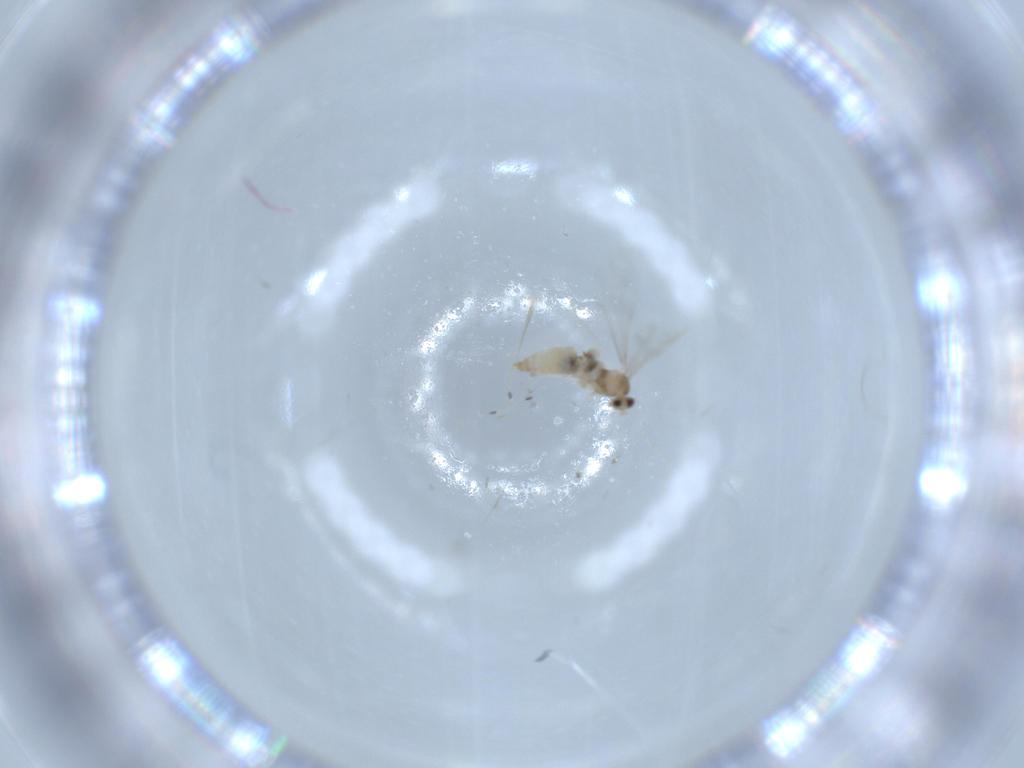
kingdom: Animalia
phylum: Arthropoda
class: Insecta
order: Diptera
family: Cecidomyiidae
